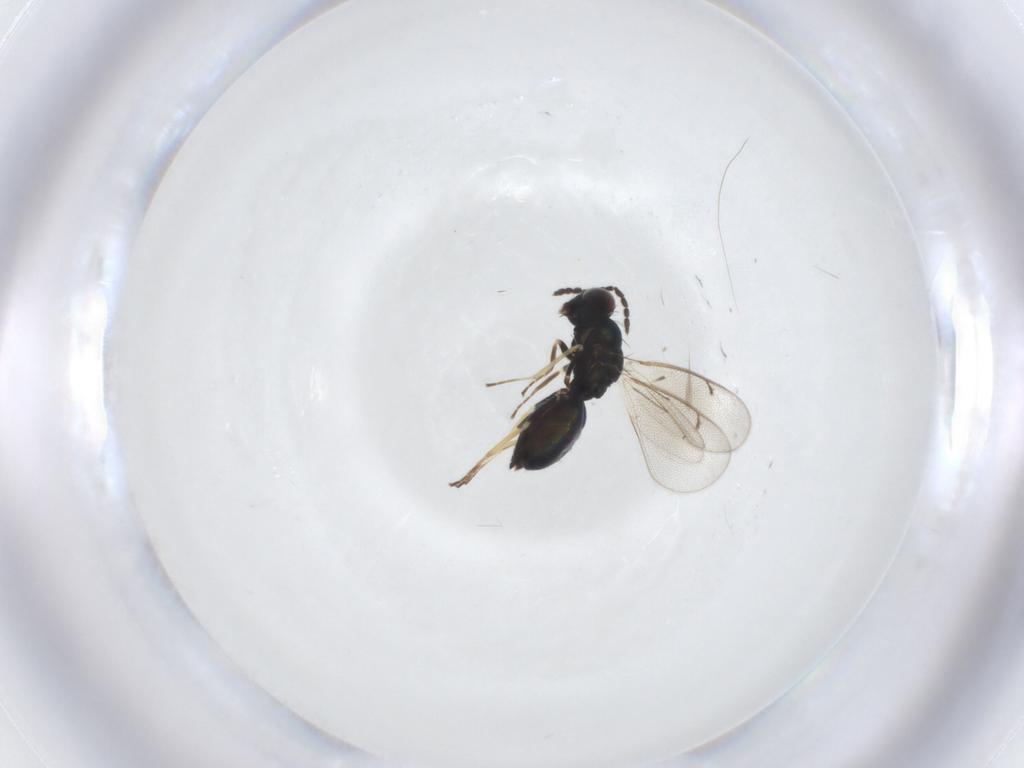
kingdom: Animalia
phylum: Arthropoda
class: Insecta
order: Hymenoptera
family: Eulophidae
